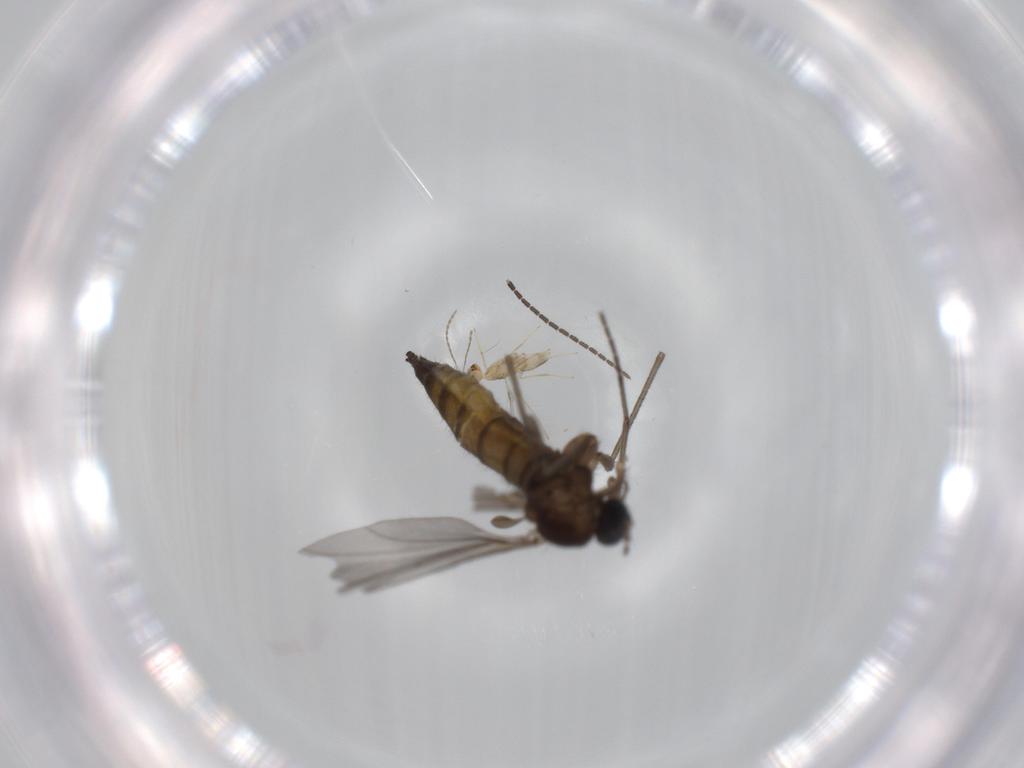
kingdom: Animalia
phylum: Arthropoda
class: Insecta
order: Diptera
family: Sciaridae
